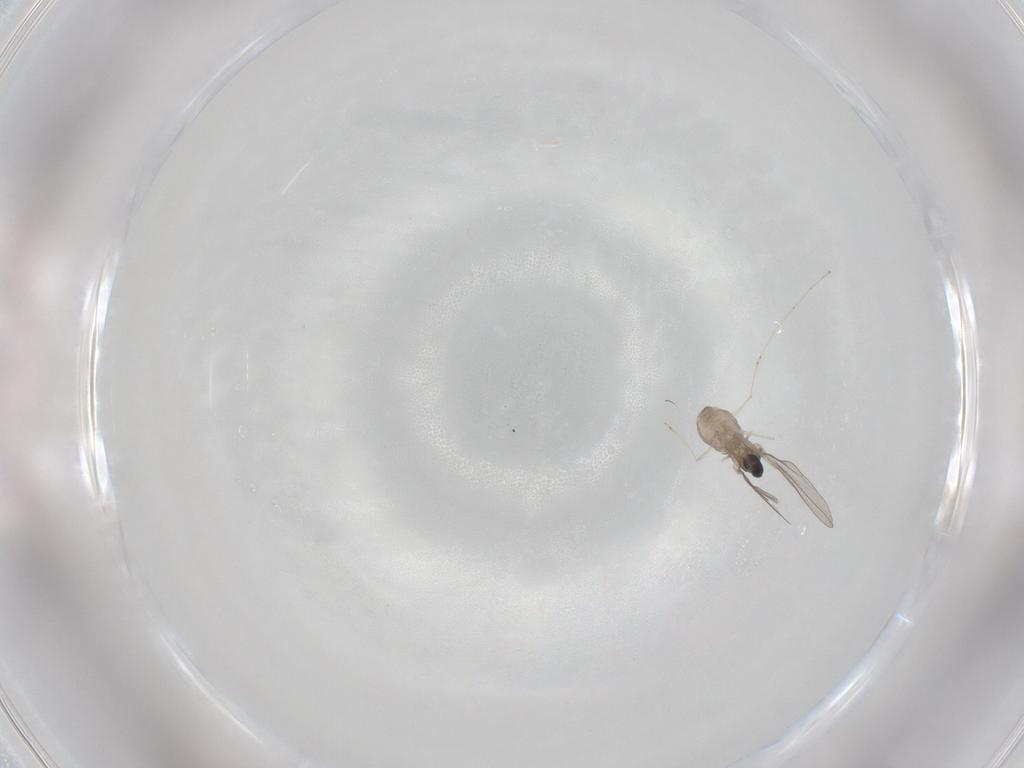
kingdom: Animalia
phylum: Arthropoda
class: Insecta
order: Diptera
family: Cecidomyiidae
